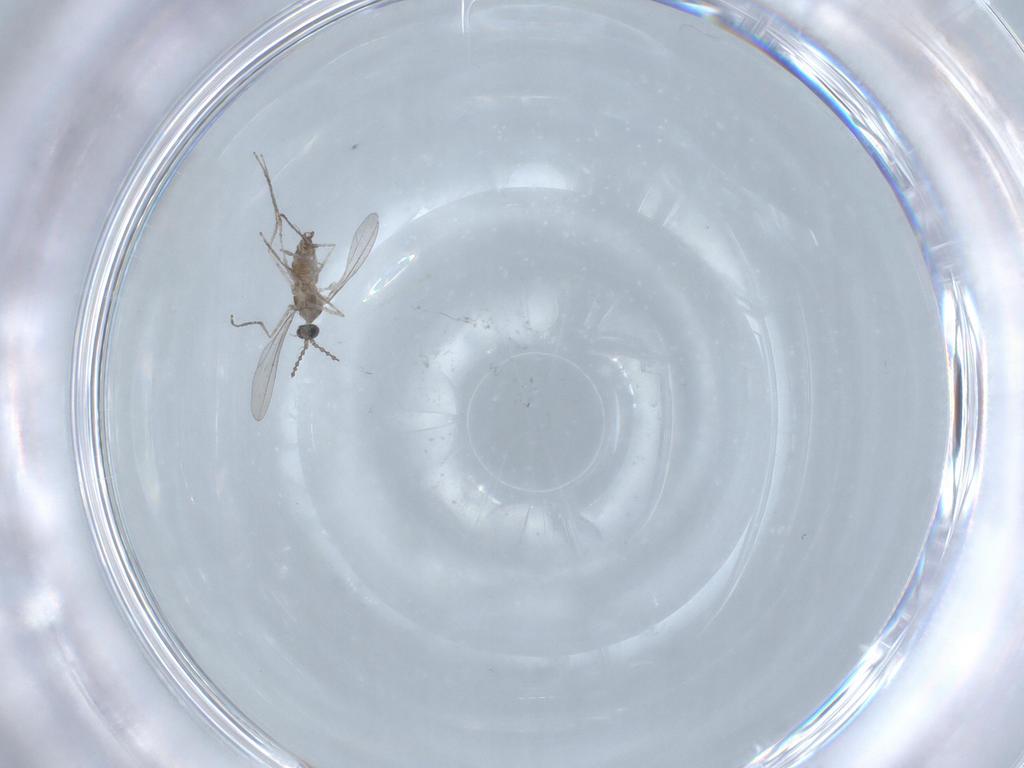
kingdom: Animalia
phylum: Arthropoda
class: Insecta
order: Diptera
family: Cecidomyiidae
